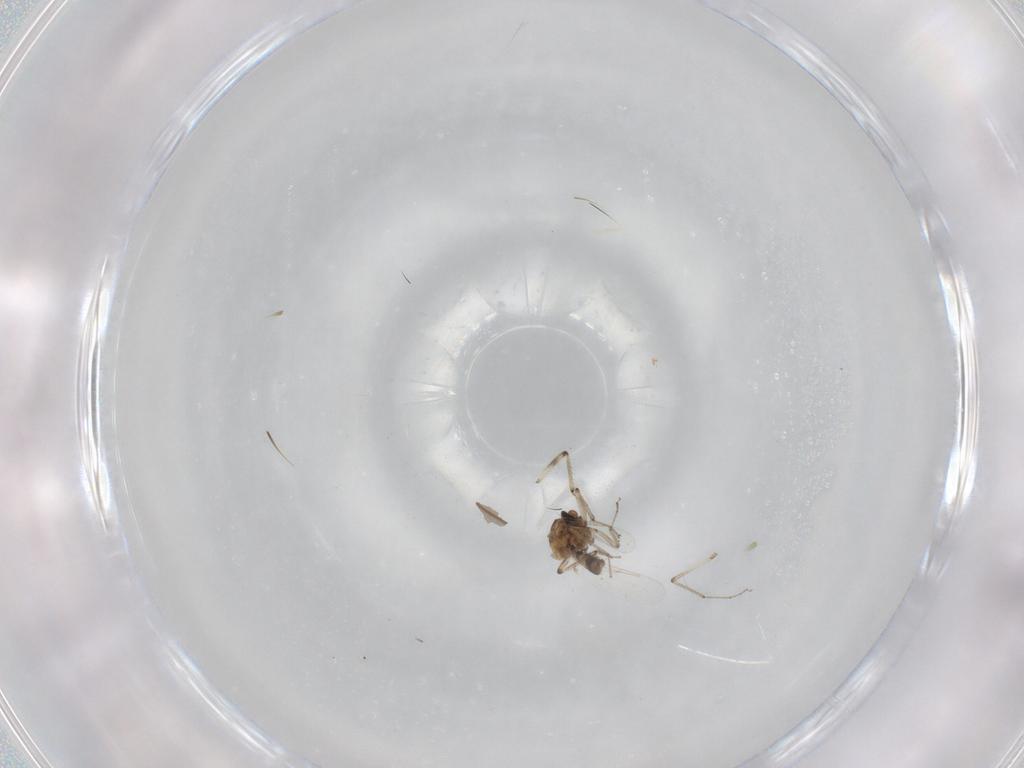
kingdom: Animalia
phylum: Arthropoda
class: Insecta
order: Diptera
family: Ceratopogonidae
